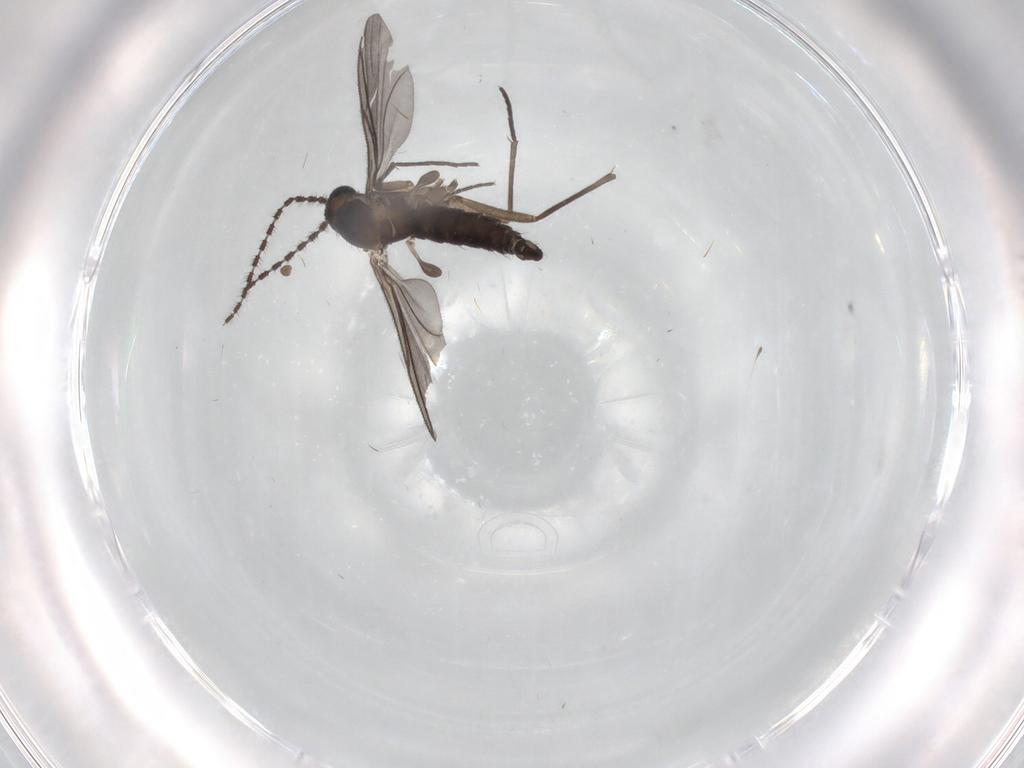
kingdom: Animalia
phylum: Arthropoda
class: Insecta
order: Diptera
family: Sciaridae
